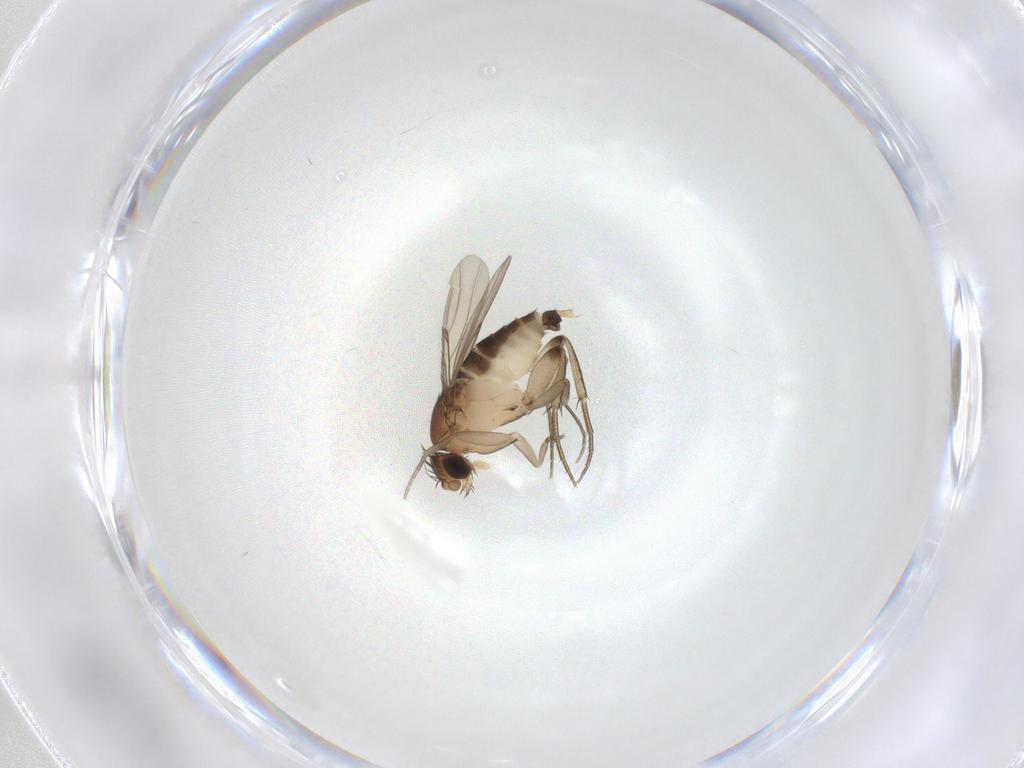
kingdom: Animalia
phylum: Arthropoda
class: Insecta
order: Diptera
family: Phoridae
